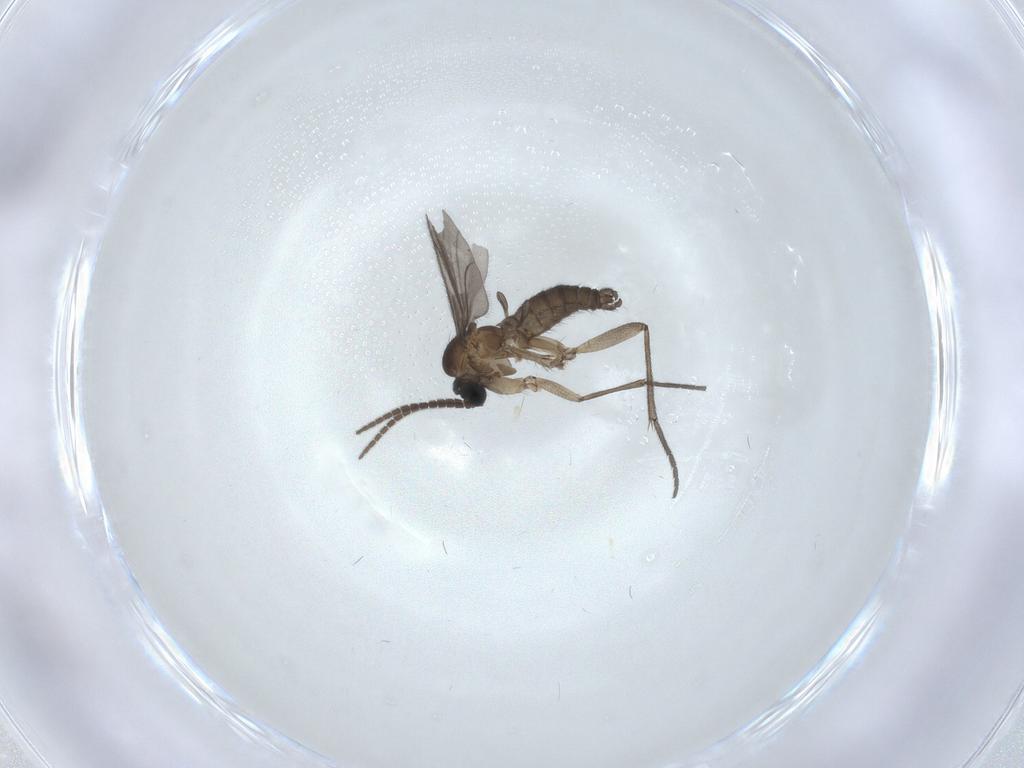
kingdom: Animalia
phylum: Arthropoda
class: Insecta
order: Diptera
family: Sciaridae
